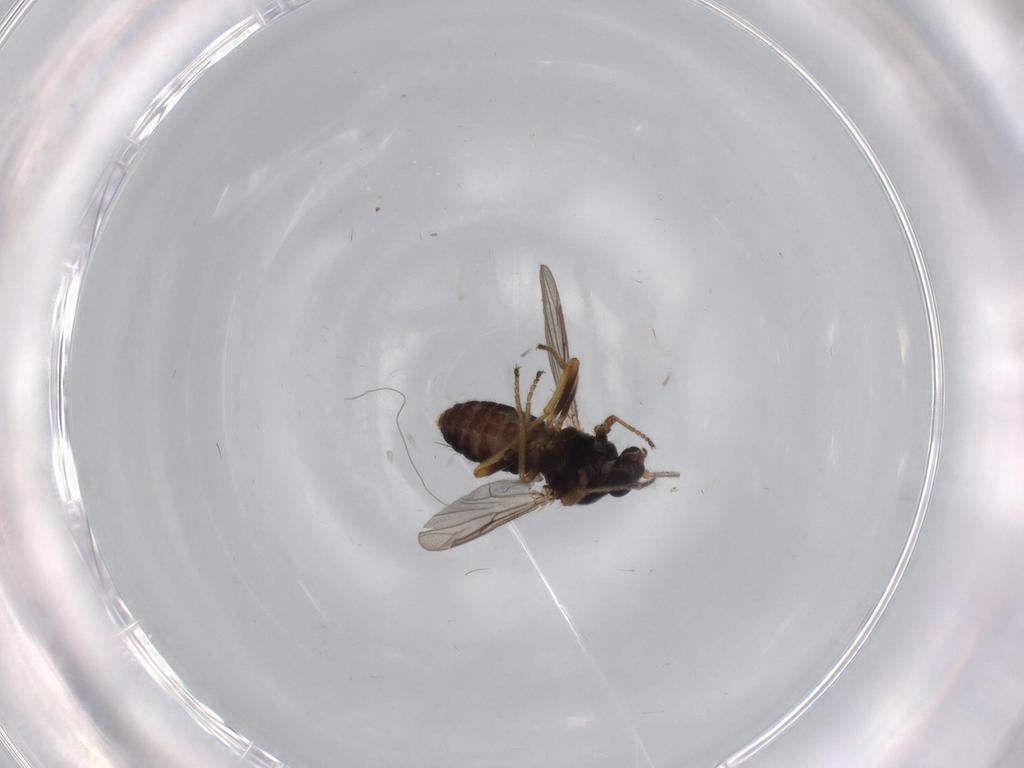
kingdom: Animalia
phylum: Arthropoda
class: Insecta
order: Diptera
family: Ceratopogonidae
